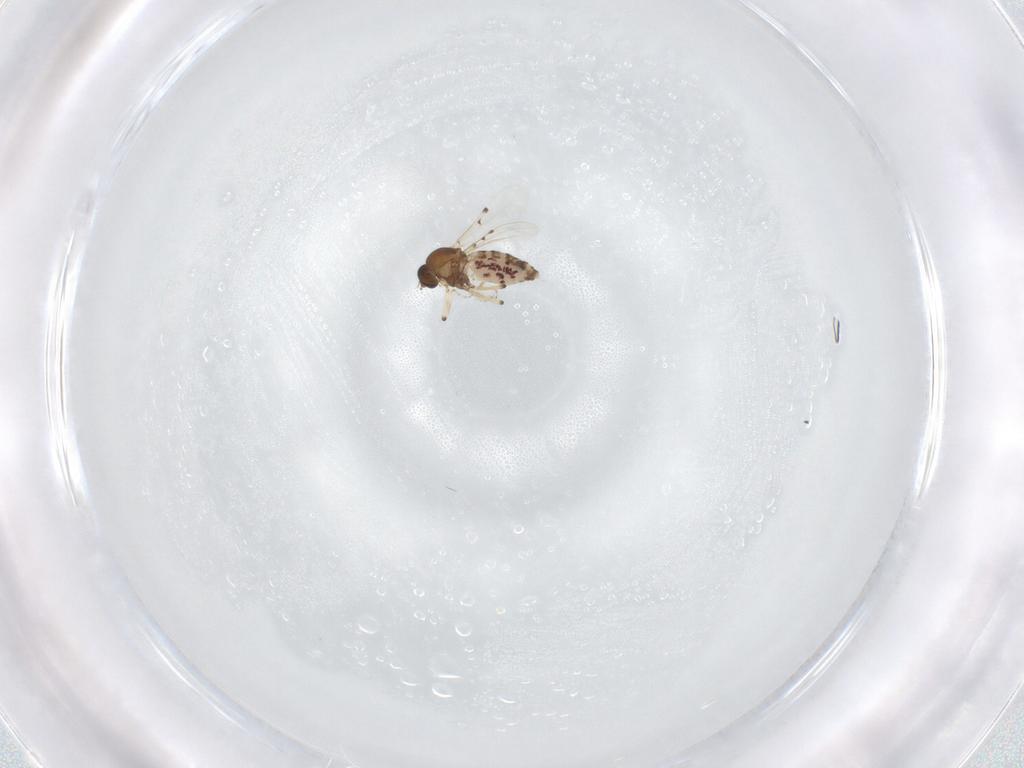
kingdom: Animalia
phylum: Arthropoda
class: Insecta
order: Diptera
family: Ceratopogonidae
